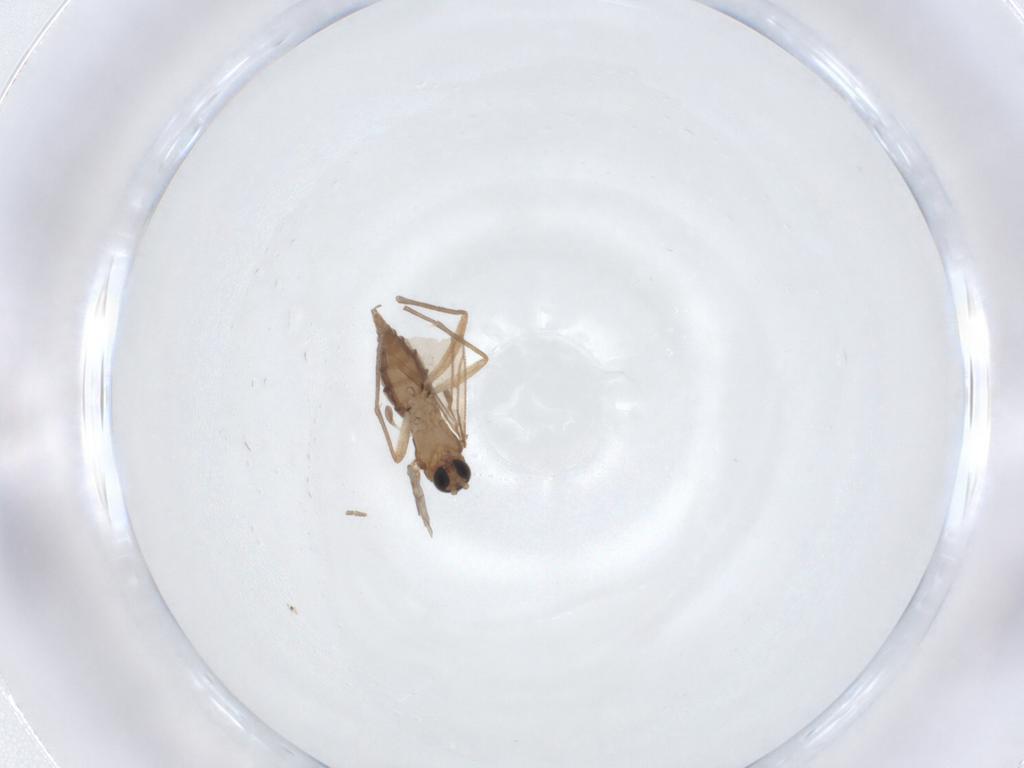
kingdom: Animalia
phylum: Arthropoda
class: Insecta
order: Diptera
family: Sciaridae
